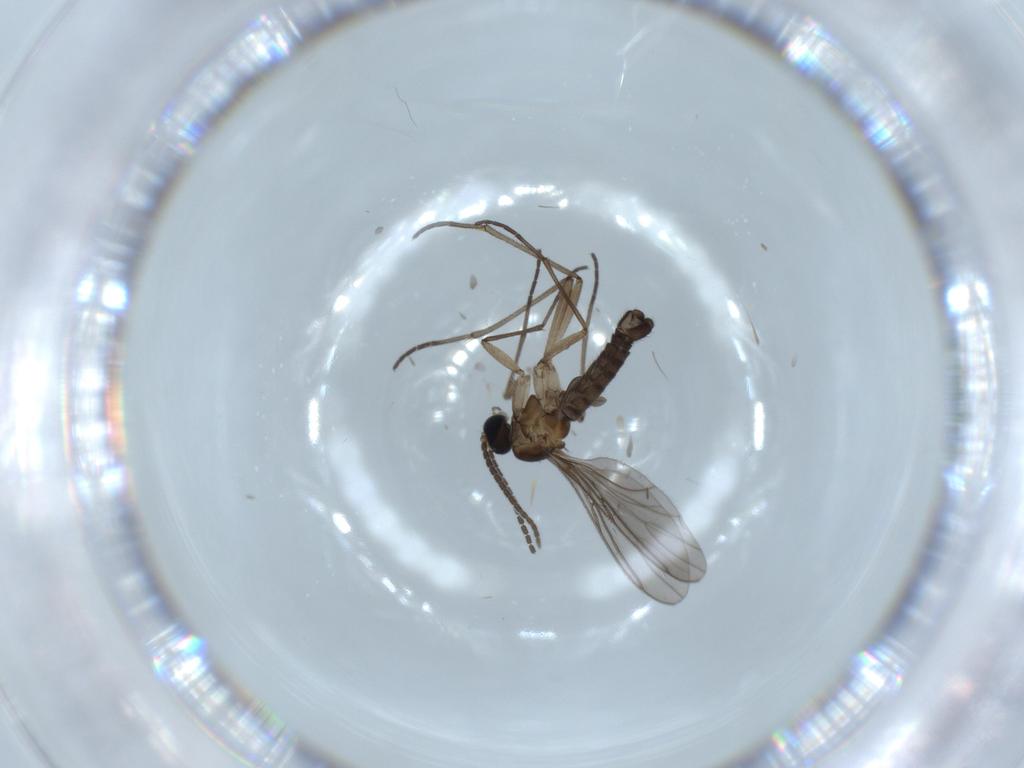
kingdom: Animalia
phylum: Arthropoda
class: Insecta
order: Diptera
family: Sciaridae
